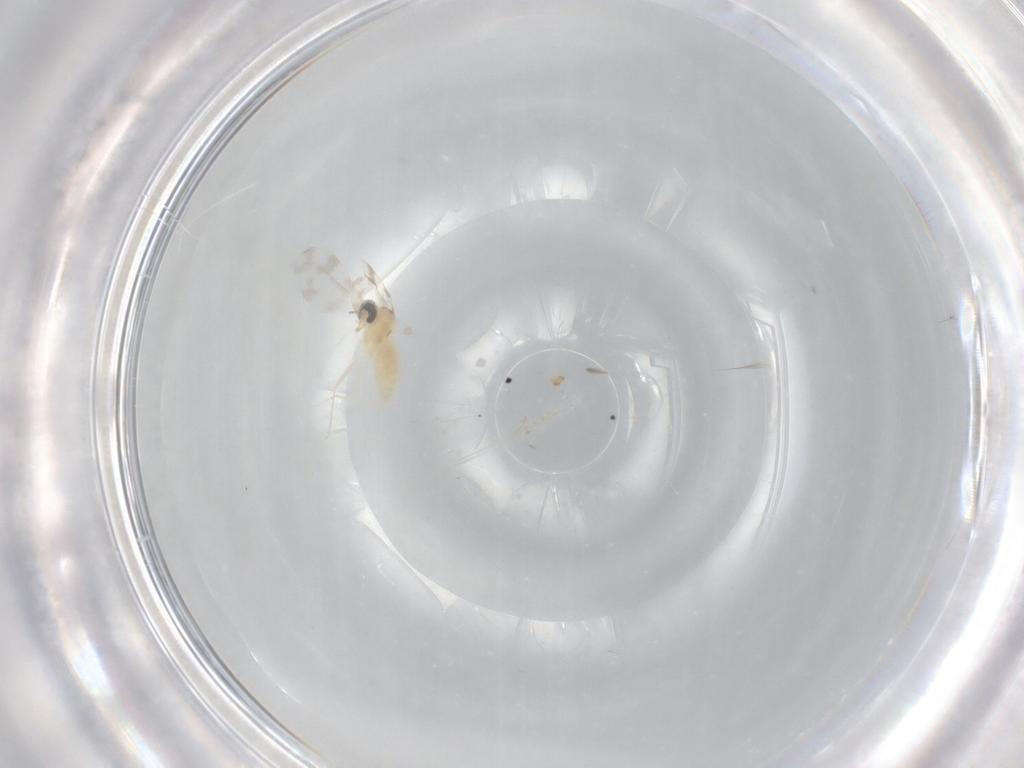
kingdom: Animalia
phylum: Arthropoda
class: Insecta
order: Diptera
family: Cecidomyiidae
